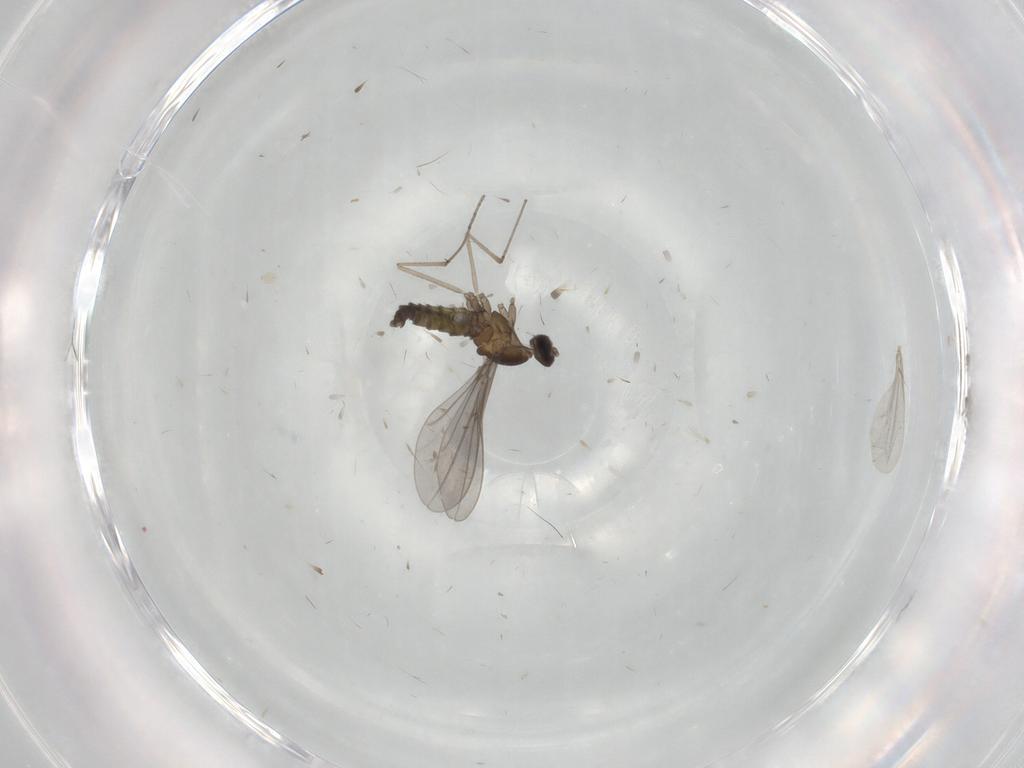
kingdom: Animalia
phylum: Arthropoda
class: Insecta
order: Diptera
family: Cecidomyiidae
